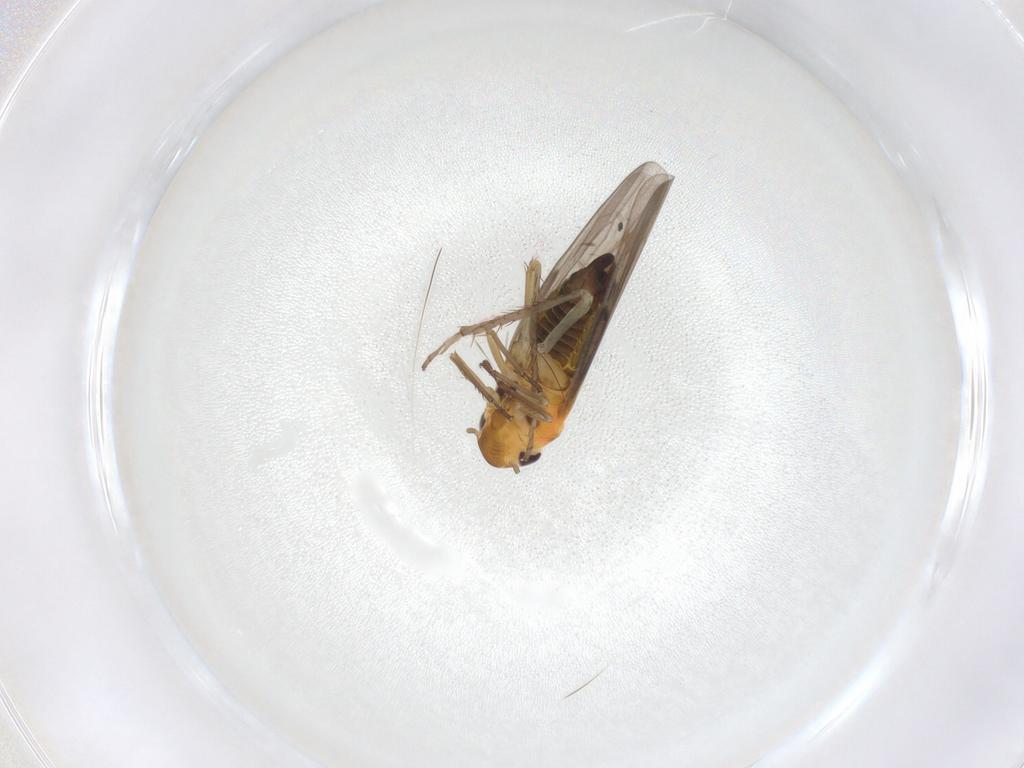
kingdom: Animalia
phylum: Arthropoda
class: Insecta
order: Hemiptera
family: Cicadellidae
